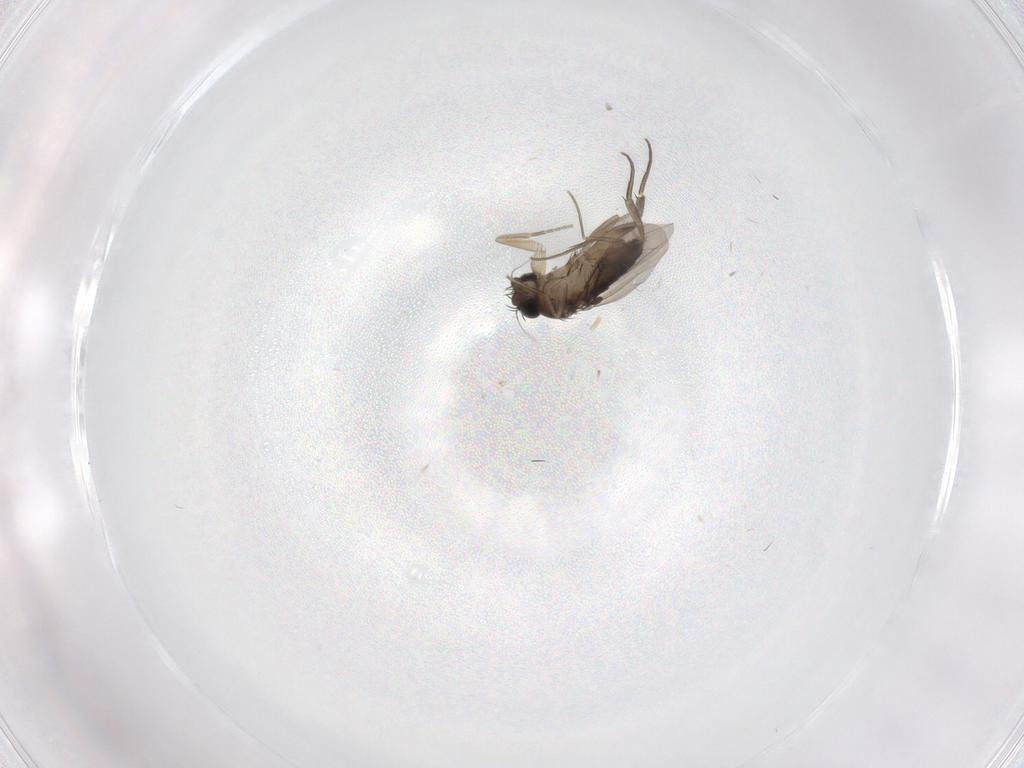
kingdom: Animalia
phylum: Arthropoda
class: Insecta
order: Diptera
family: Phoridae
